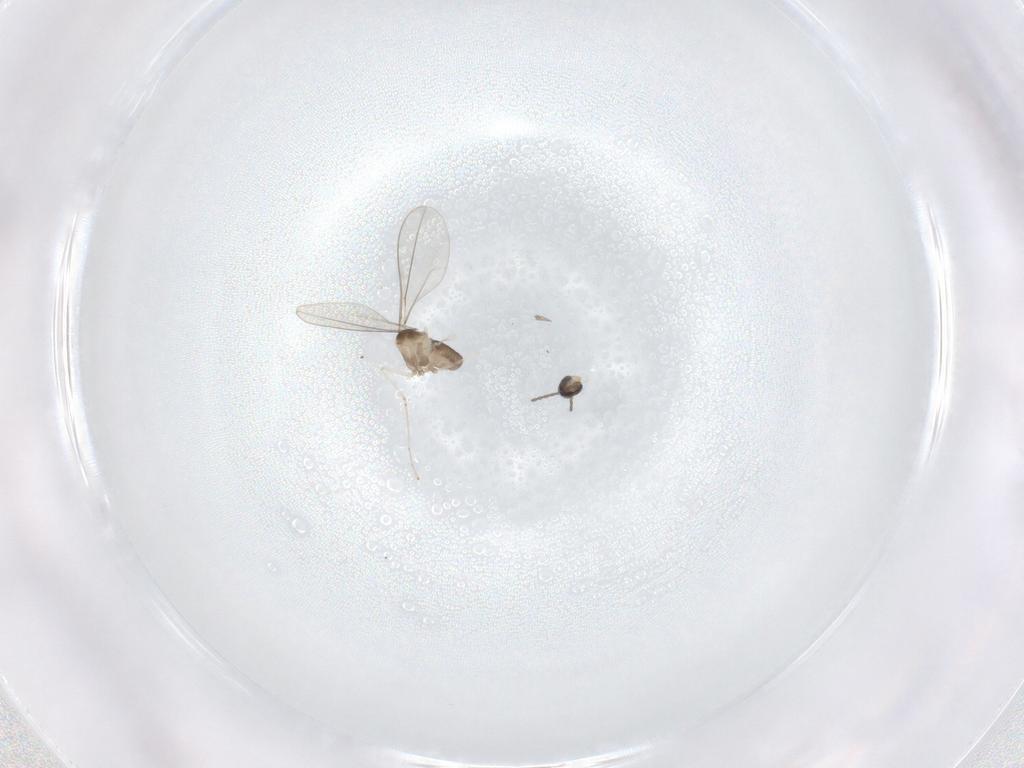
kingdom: Animalia
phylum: Arthropoda
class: Insecta
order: Diptera
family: Cecidomyiidae
